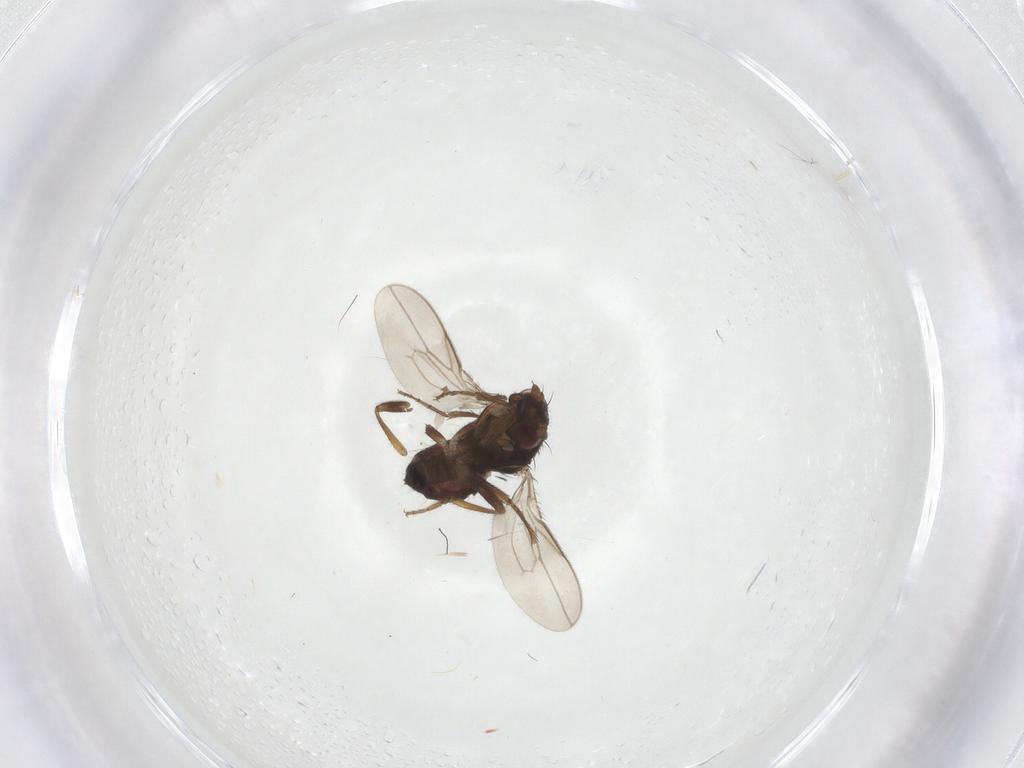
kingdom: Animalia
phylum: Arthropoda
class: Insecta
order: Diptera
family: Sphaeroceridae
